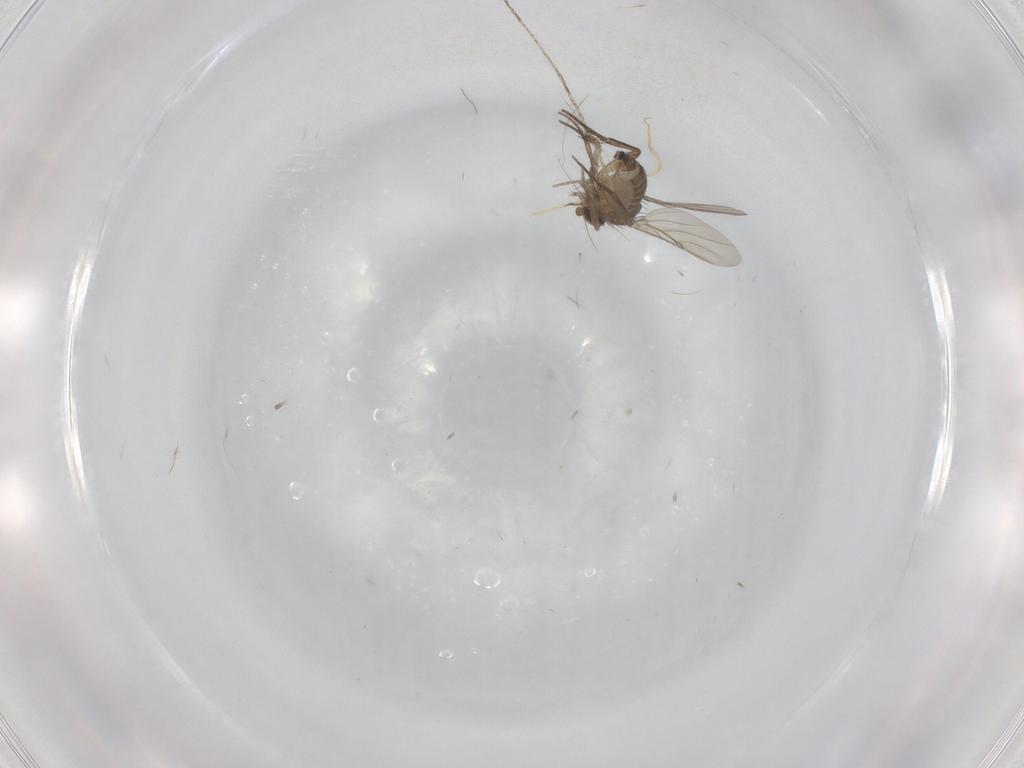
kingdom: Animalia
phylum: Arthropoda
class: Insecta
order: Diptera
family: Phoridae
